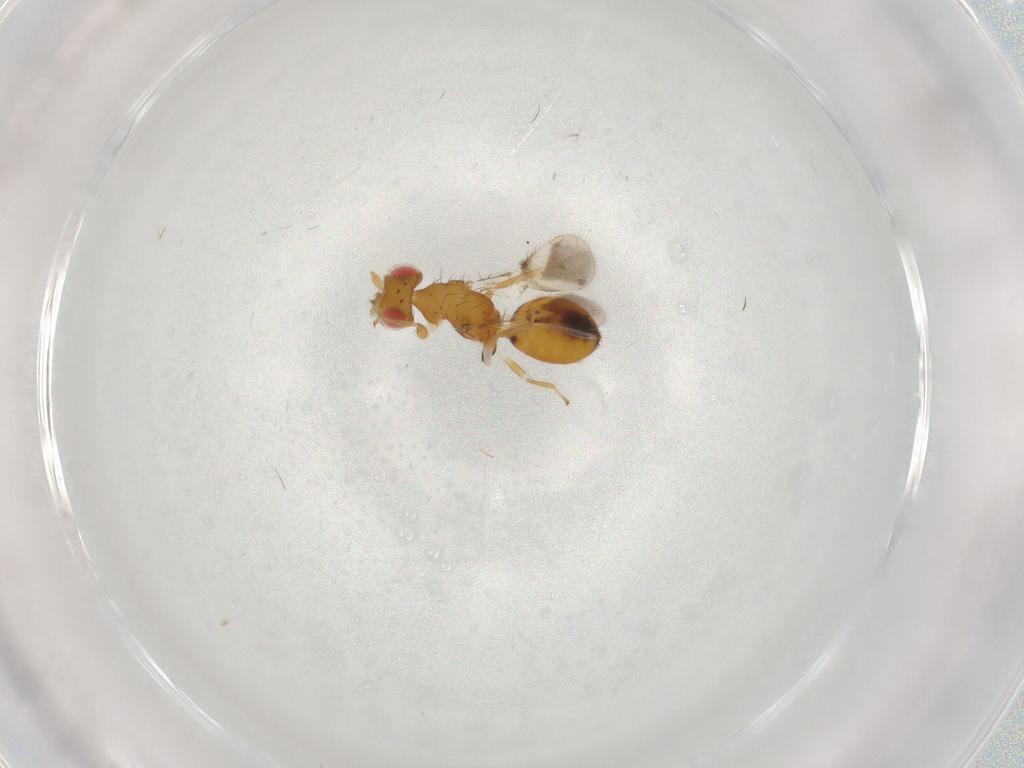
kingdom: Animalia
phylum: Arthropoda
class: Insecta
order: Hymenoptera
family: Eulophidae
